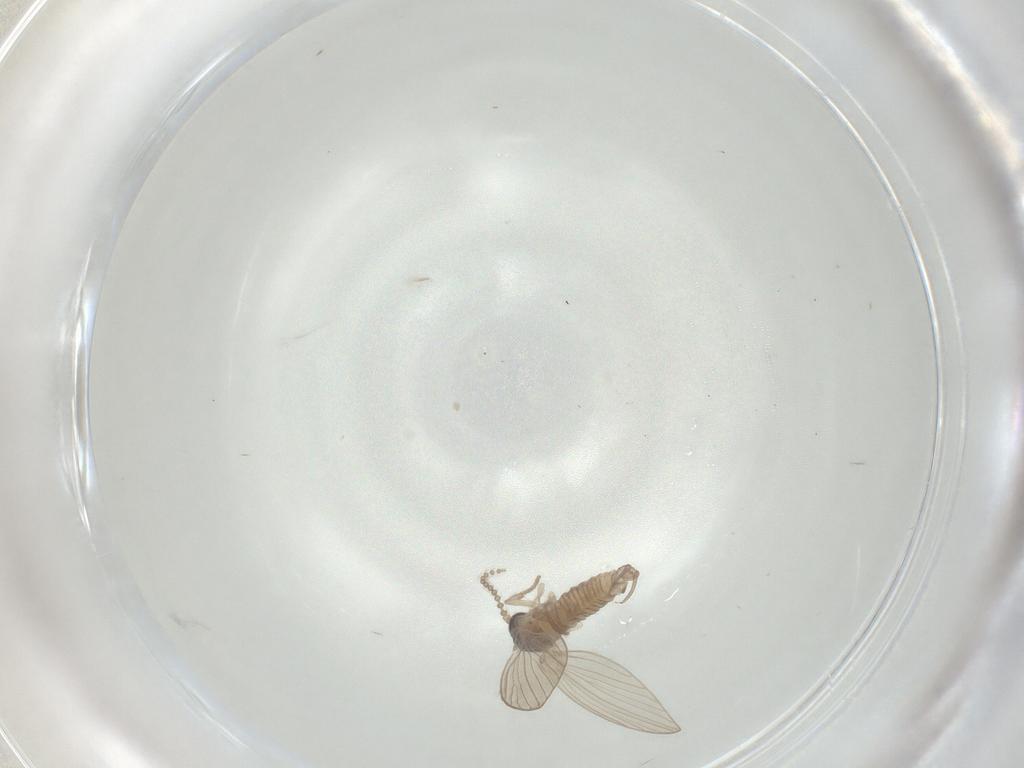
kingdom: Animalia
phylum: Arthropoda
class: Insecta
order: Diptera
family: Psychodidae
